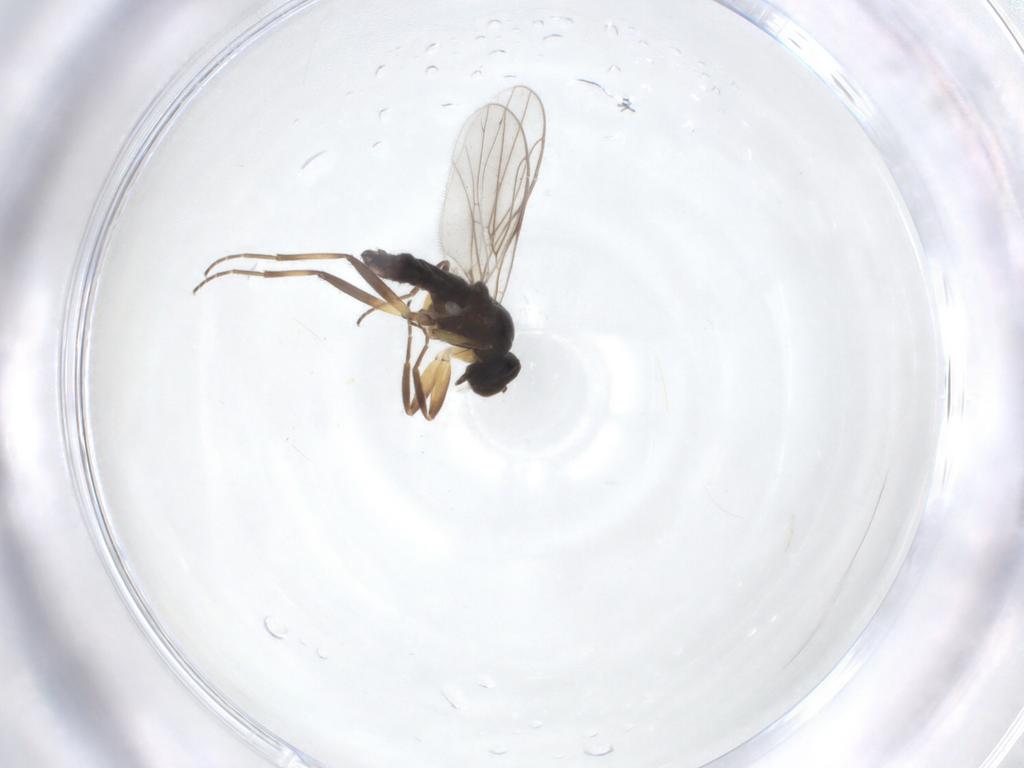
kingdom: Animalia
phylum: Arthropoda
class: Insecta
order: Diptera
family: Hybotidae
